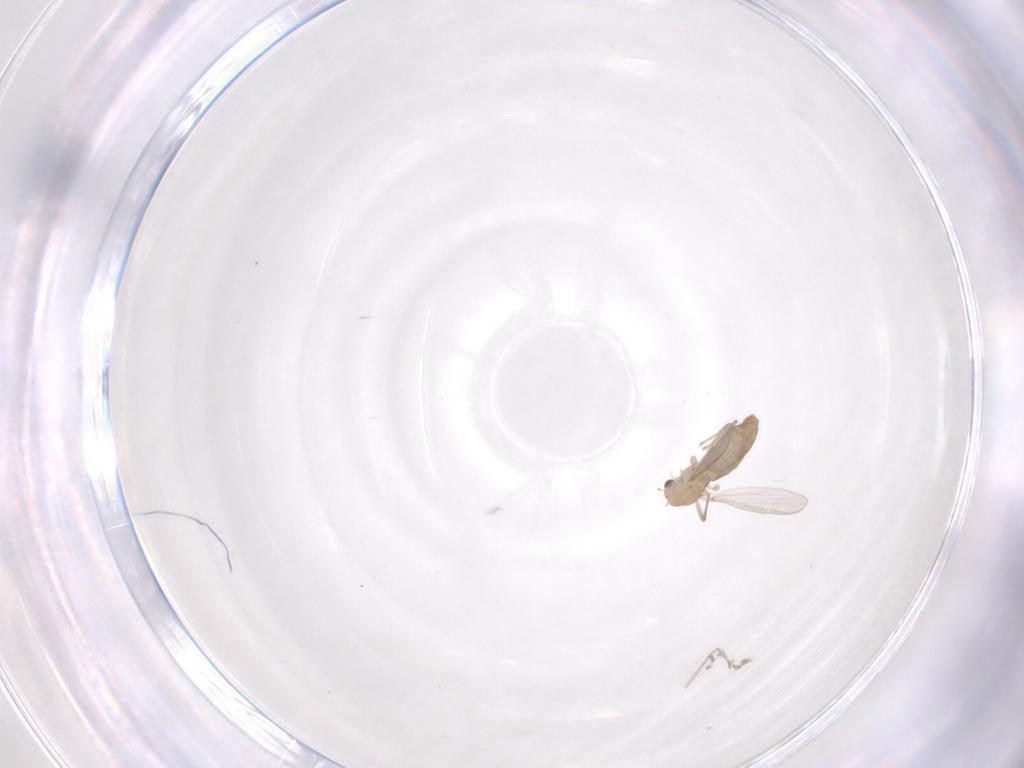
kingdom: Animalia
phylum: Arthropoda
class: Insecta
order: Diptera
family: Chironomidae
